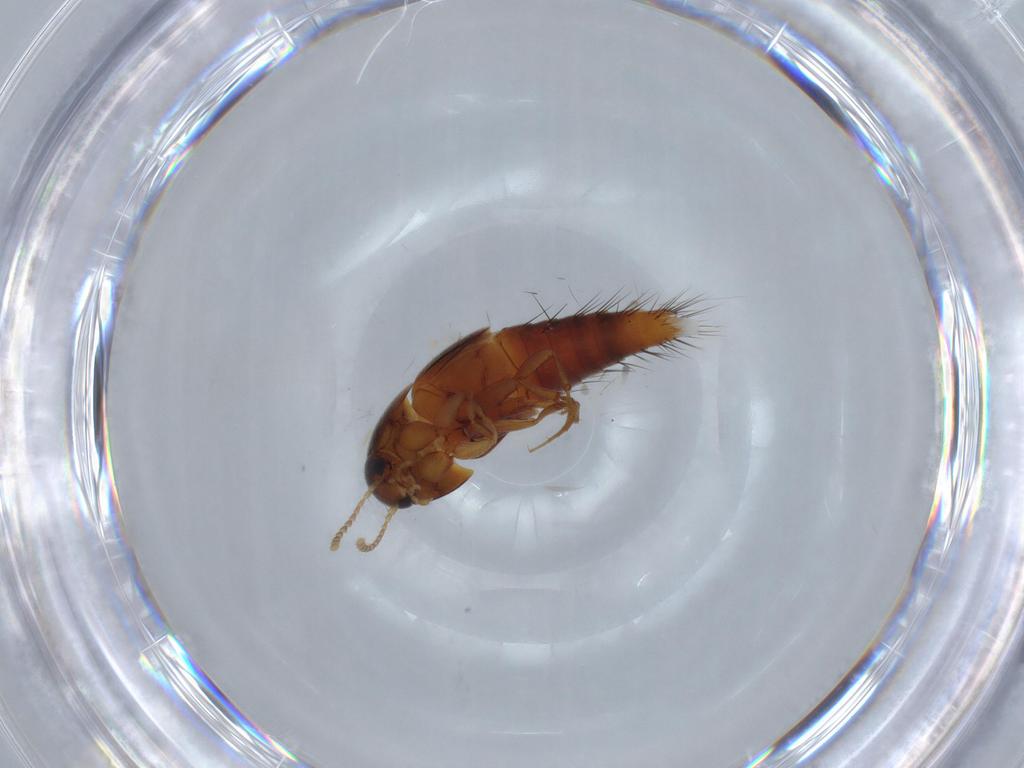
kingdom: Animalia
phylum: Arthropoda
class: Insecta
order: Coleoptera
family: Staphylinidae
